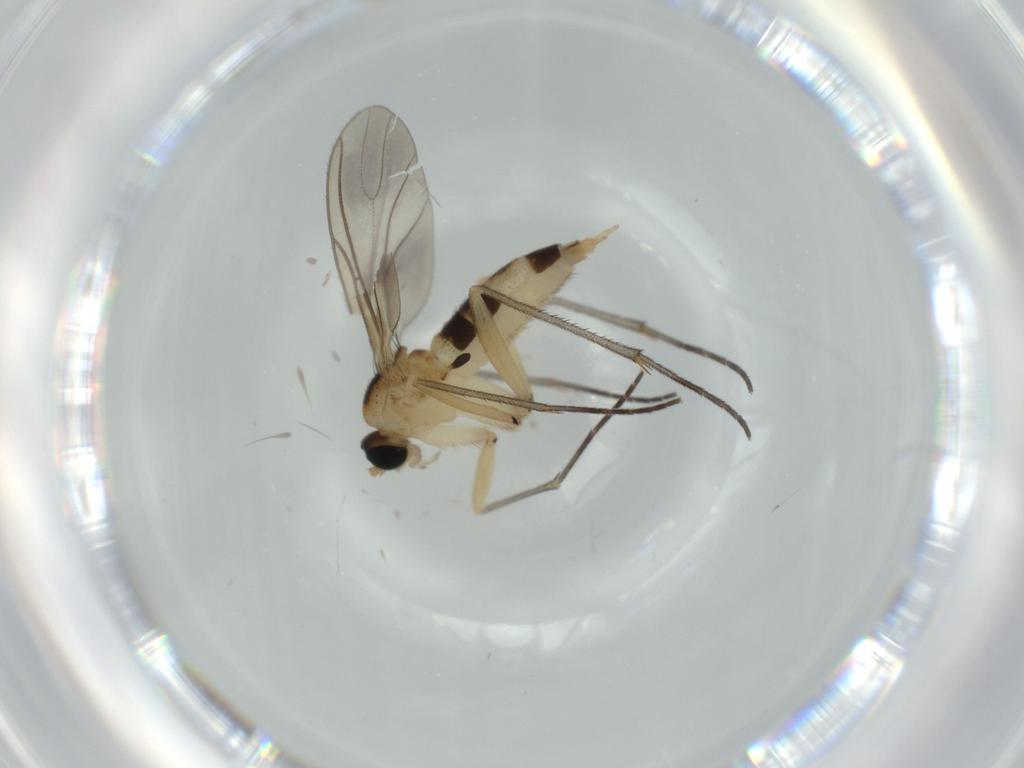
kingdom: Animalia
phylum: Arthropoda
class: Insecta
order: Diptera
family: Sciaridae
